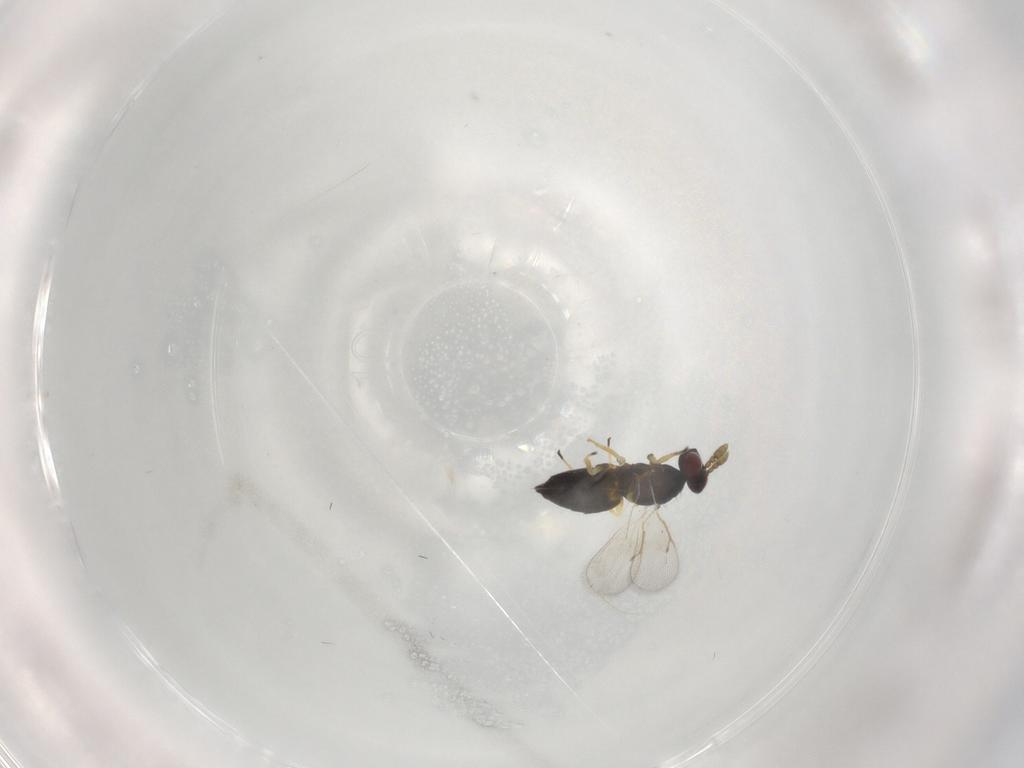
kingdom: Animalia
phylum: Arthropoda
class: Insecta
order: Hymenoptera
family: Eulophidae
